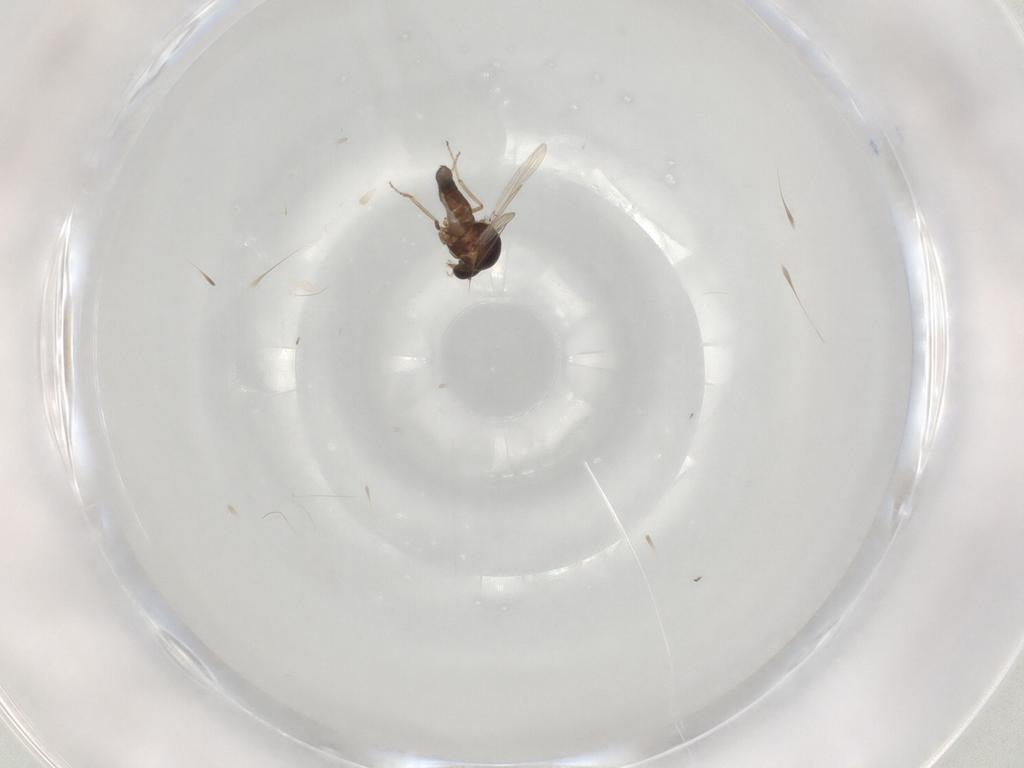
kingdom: Animalia
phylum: Arthropoda
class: Insecta
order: Diptera
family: Ceratopogonidae
